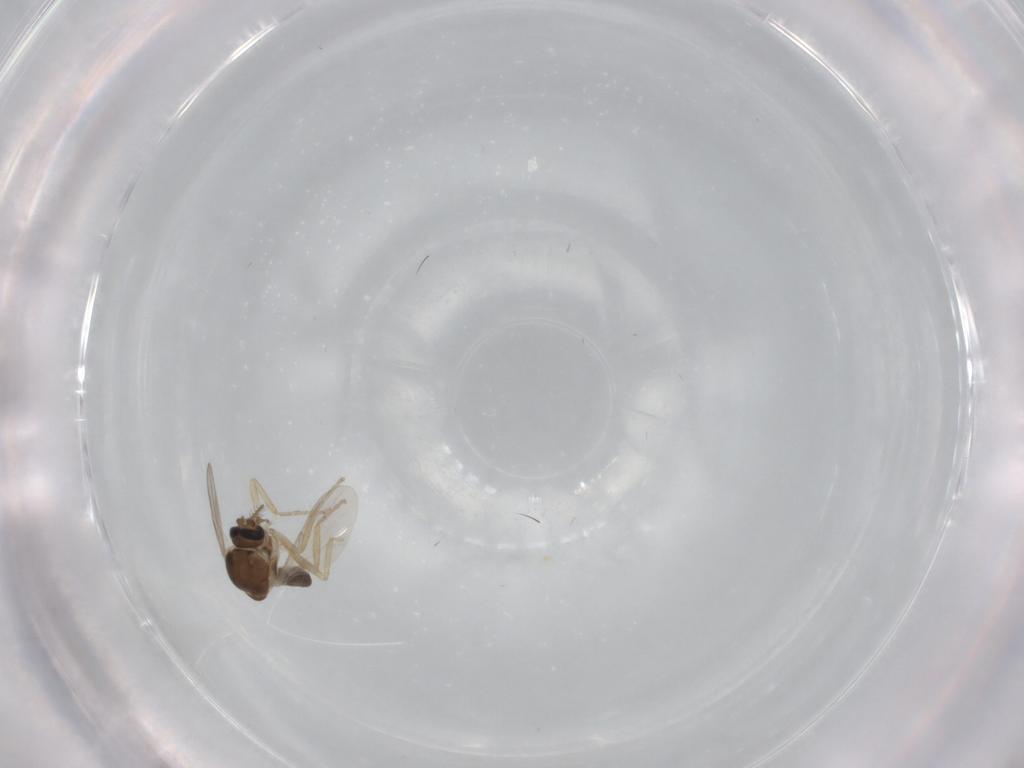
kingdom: Animalia
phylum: Arthropoda
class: Insecta
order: Diptera
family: Ceratopogonidae
